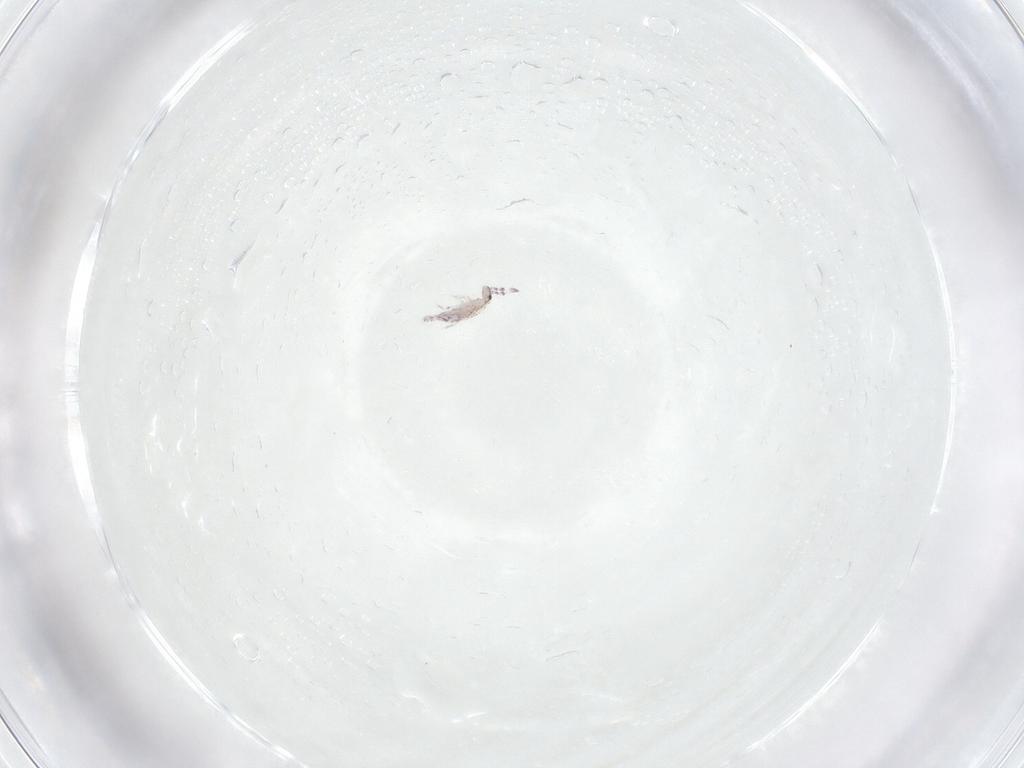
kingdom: Animalia
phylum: Arthropoda
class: Collembola
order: Entomobryomorpha
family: Entomobryidae
